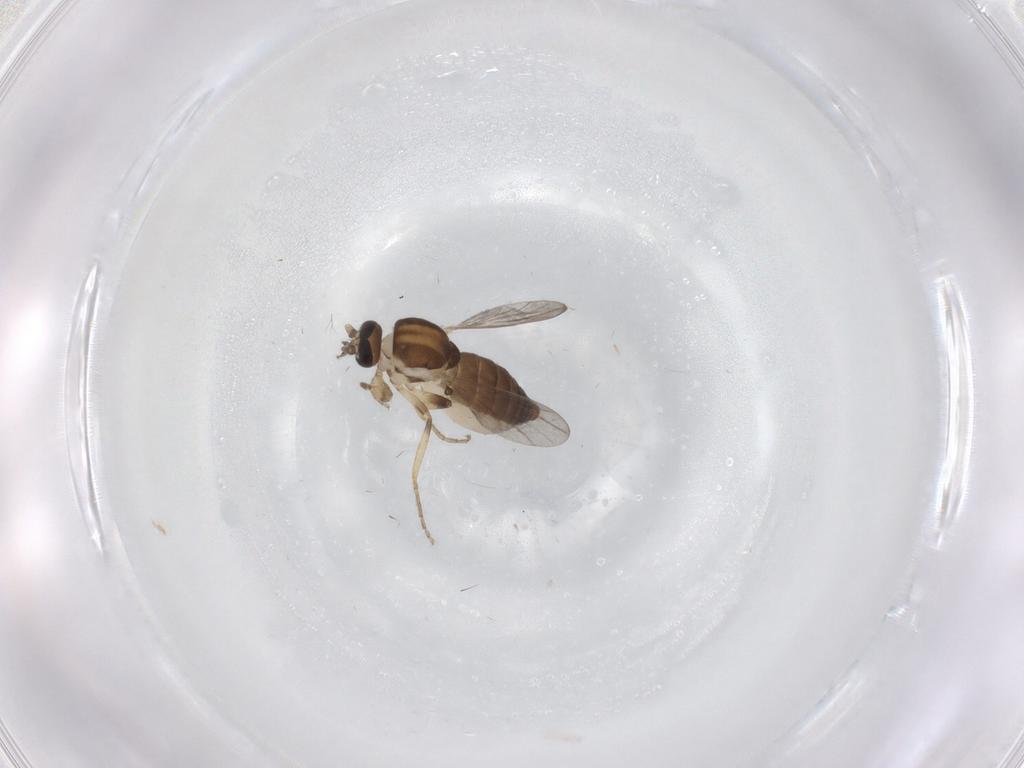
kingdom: Animalia
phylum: Arthropoda
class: Insecta
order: Diptera
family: Ceratopogonidae
